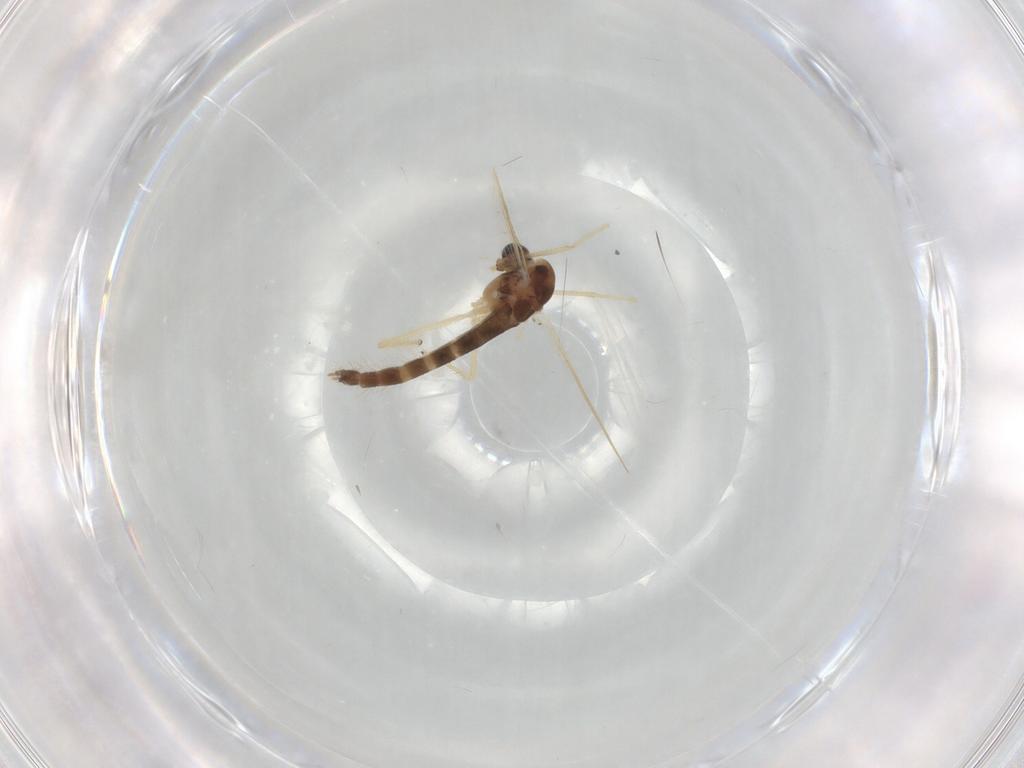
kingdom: Animalia
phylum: Arthropoda
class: Insecta
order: Diptera
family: Chironomidae
